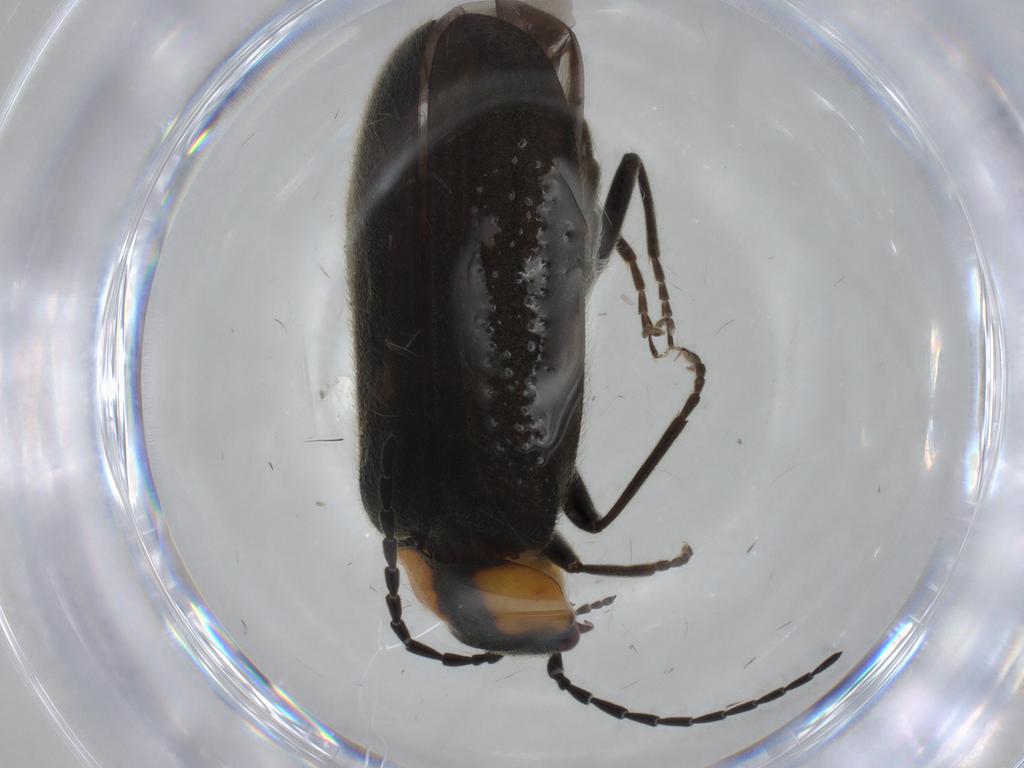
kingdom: Animalia
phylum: Arthropoda
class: Insecta
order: Coleoptera
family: Cantharidae
